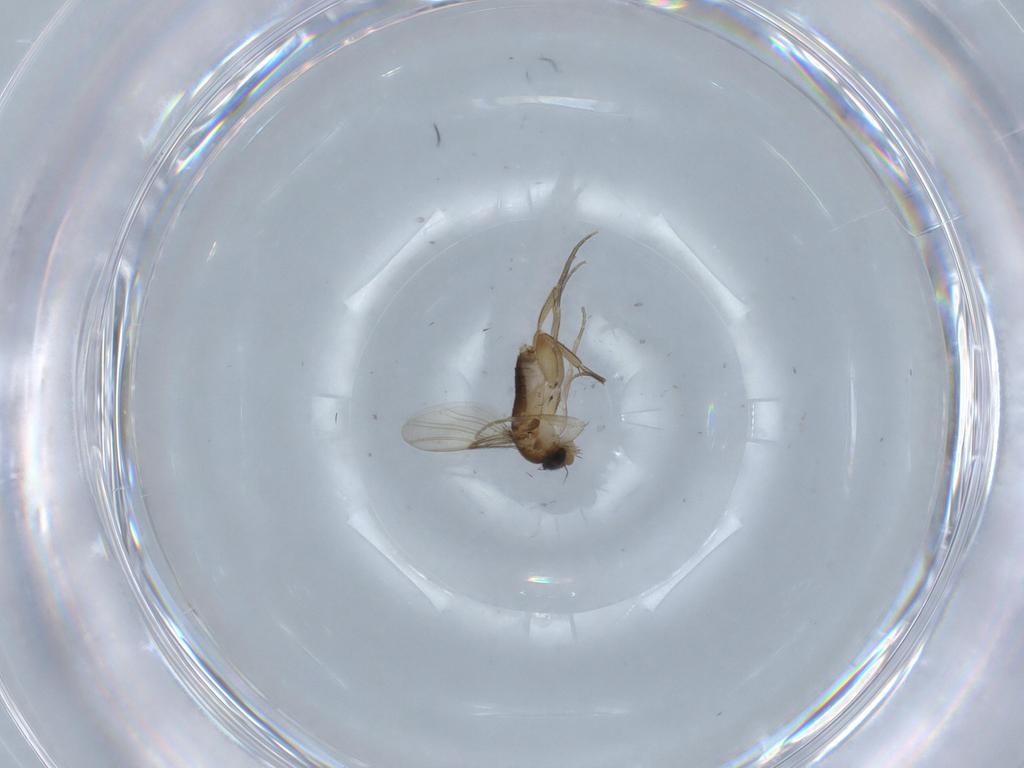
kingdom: Animalia
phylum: Arthropoda
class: Insecta
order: Diptera
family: Phoridae
